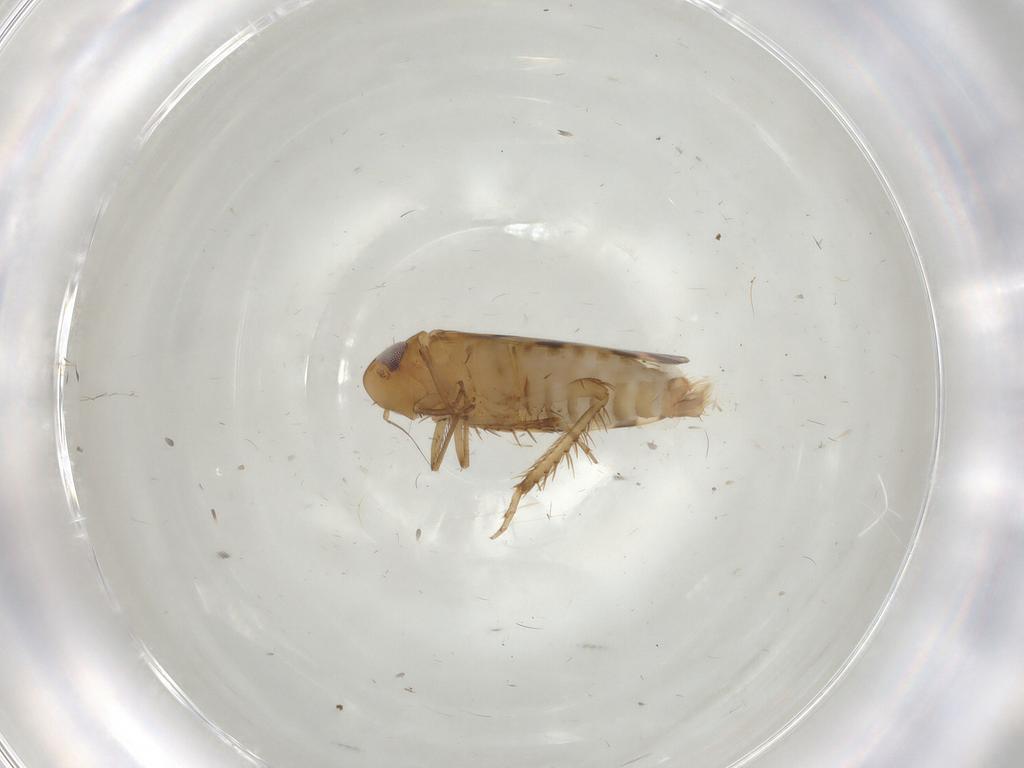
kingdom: Animalia
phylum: Arthropoda
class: Insecta
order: Hemiptera
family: Cicadellidae
